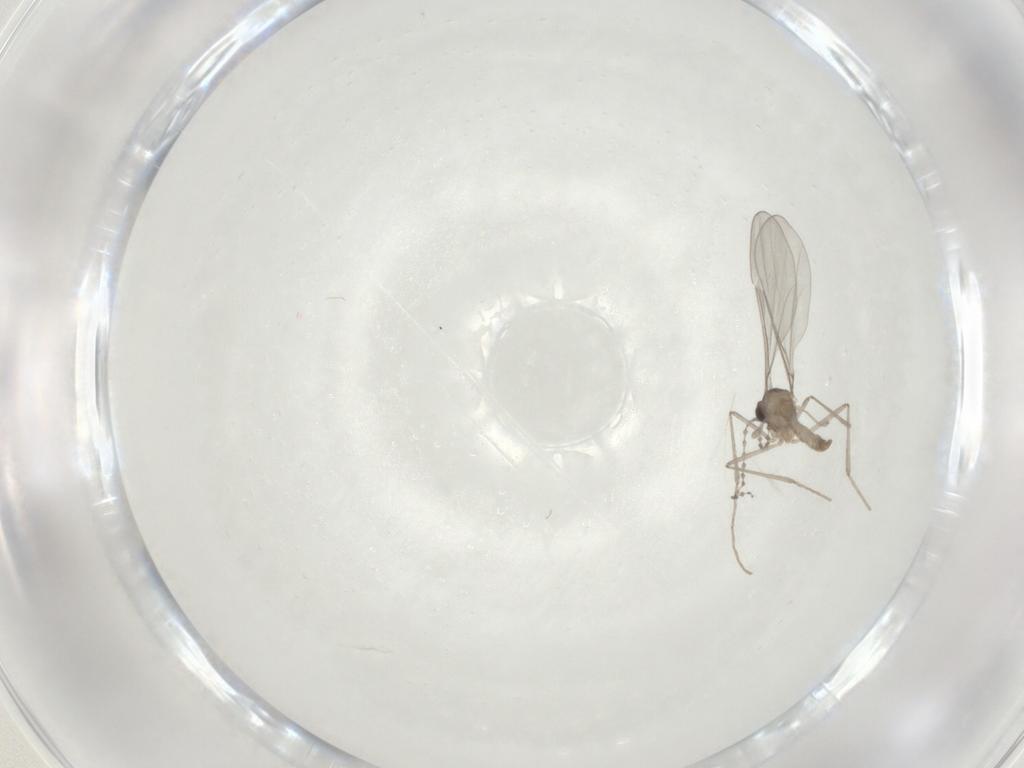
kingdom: Animalia
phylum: Arthropoda
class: Insecta
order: Diptera
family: Cecidomyiidae
